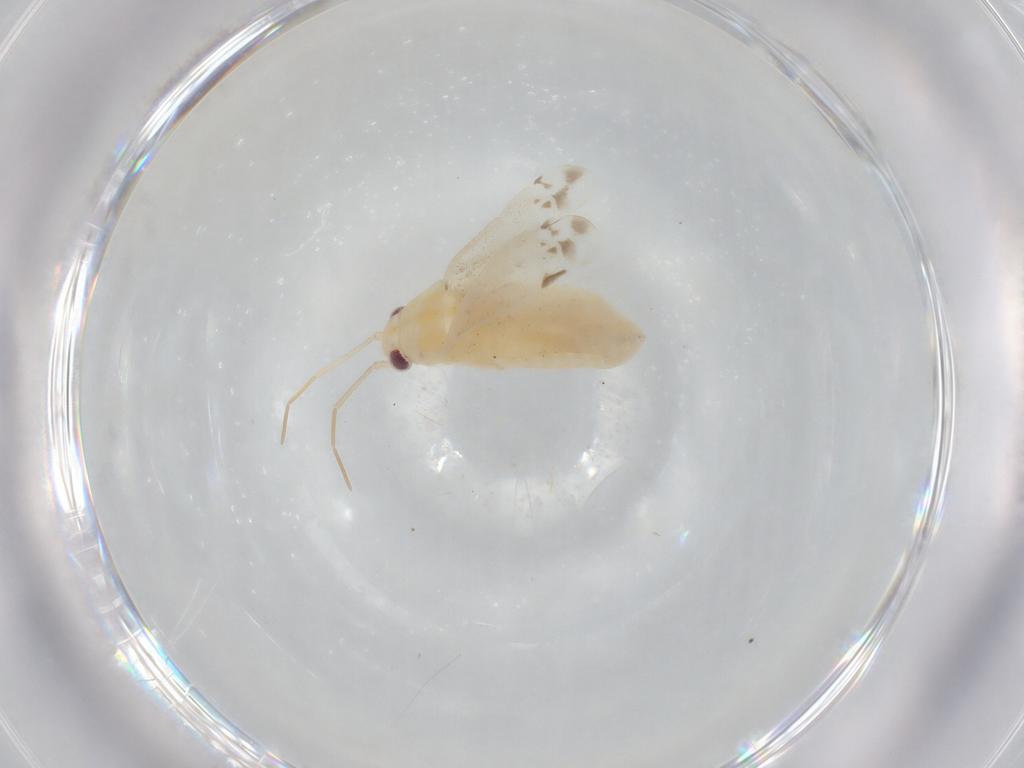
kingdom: Animalia
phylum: Arthropoda
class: Insecta
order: Hemiptera
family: Miridae
